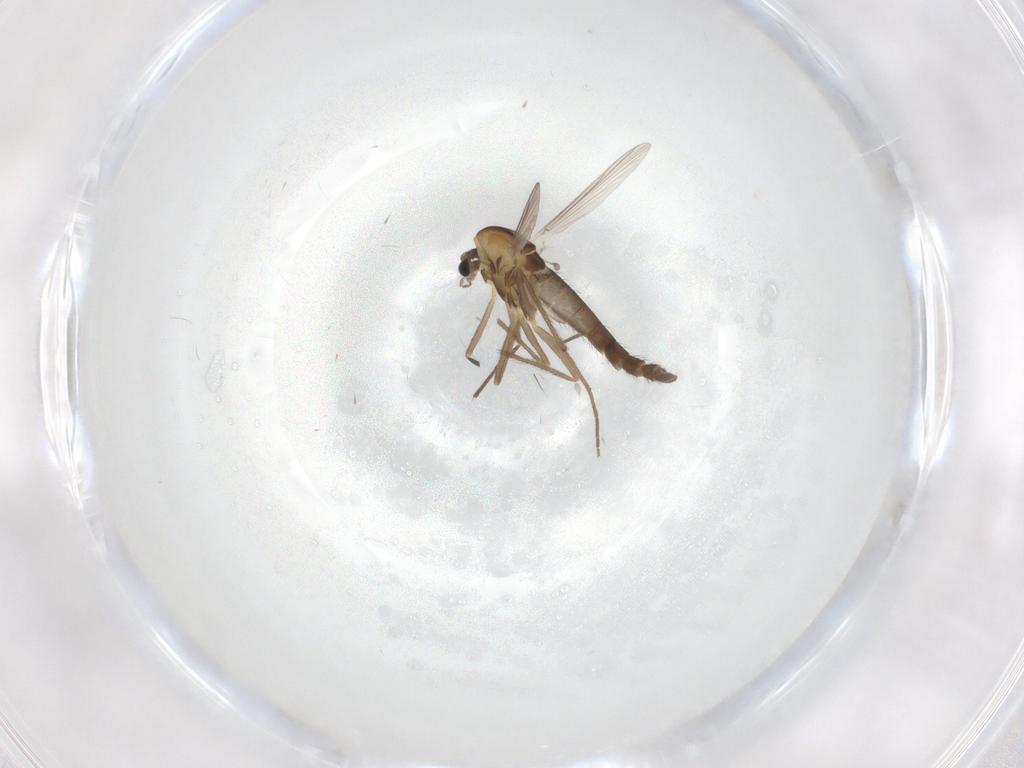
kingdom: Animalia
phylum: Arthropoda
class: Insecta
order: Diptera
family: Chironomidae
